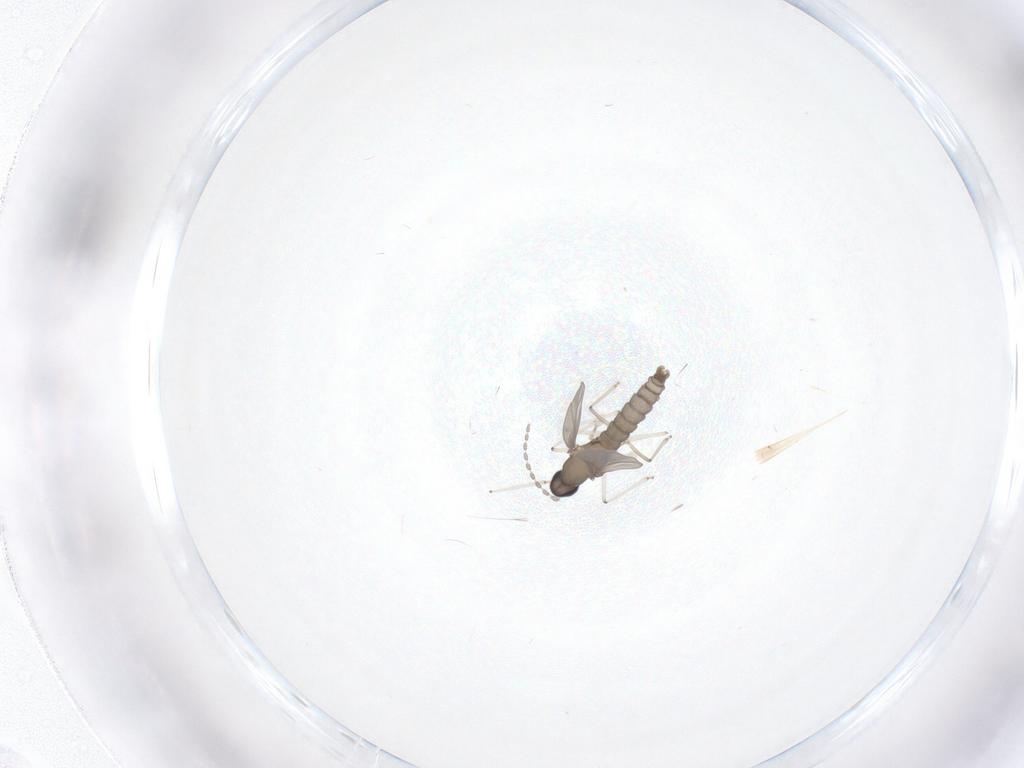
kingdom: Animalia
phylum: Arthropoda
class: Insecta
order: Diptera
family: Cecidomyiidae
